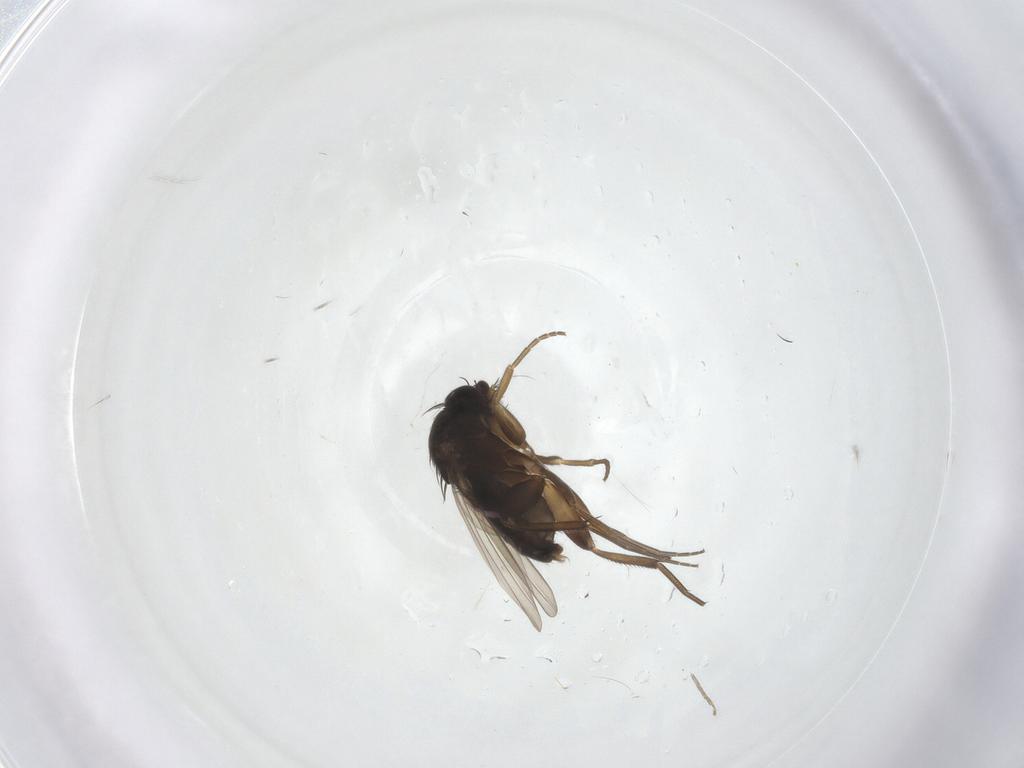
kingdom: Animalia
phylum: Arthropoda
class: Insecta
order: Diptera
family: Phoridae
